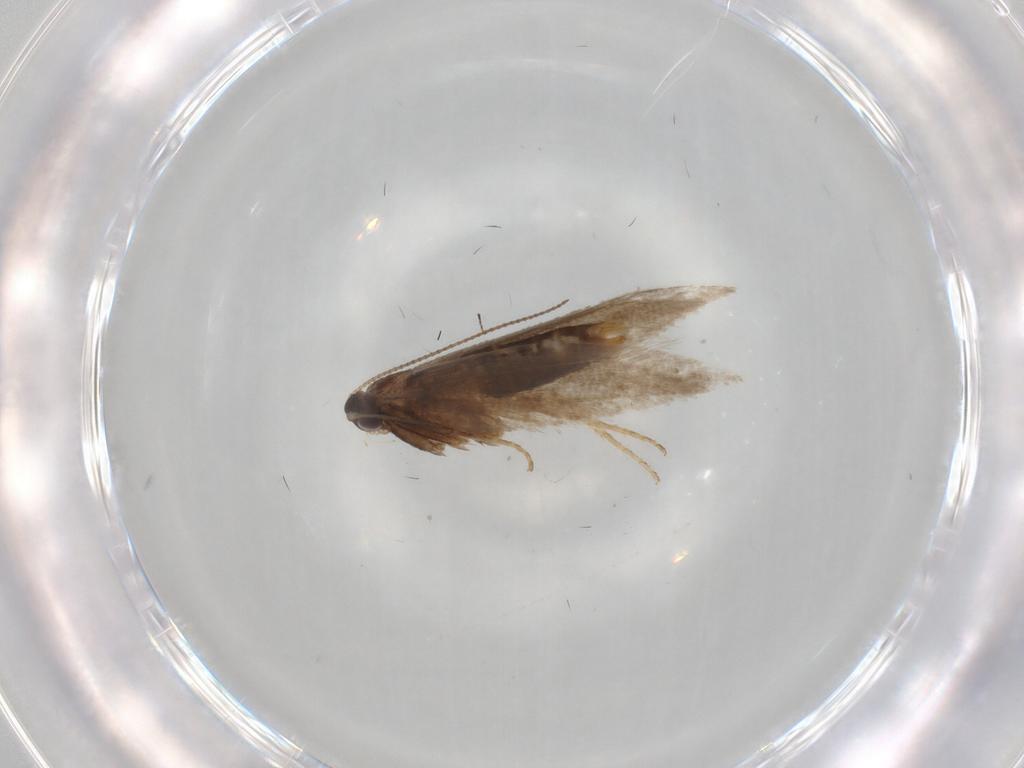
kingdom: Animalia
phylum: Arthropoda
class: Insecta
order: Lepidoptera
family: Nepticulidae
